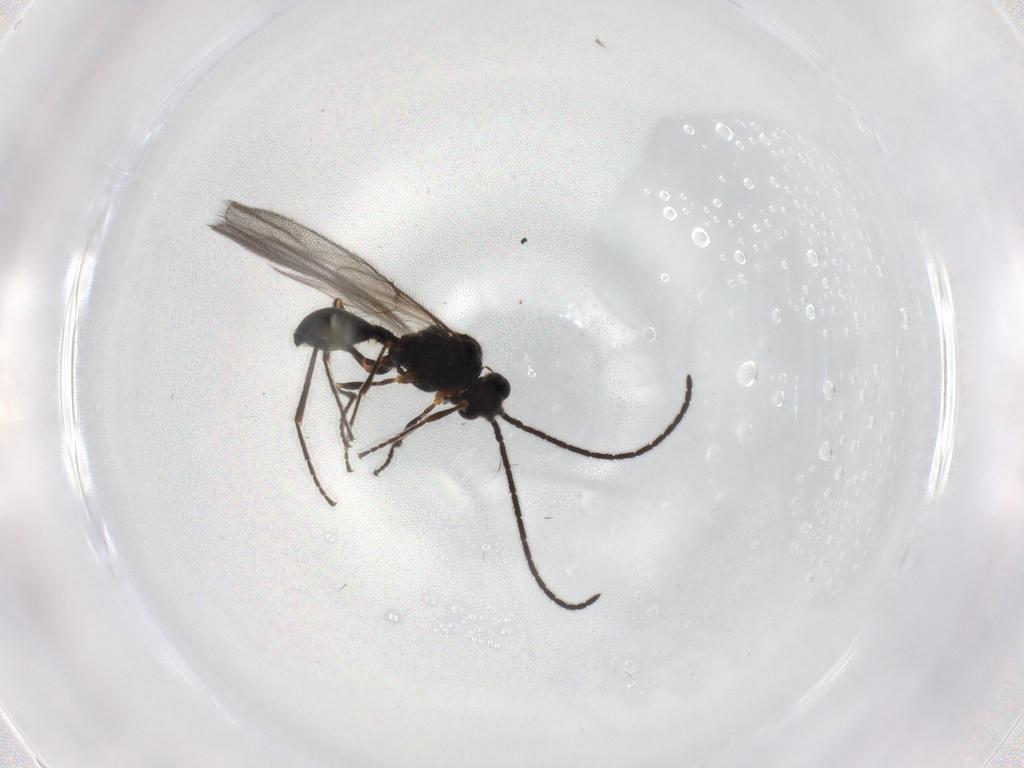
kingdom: Animalia
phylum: Arthropoda
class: Insecta
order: Hymenoptera
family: Diapriidae
